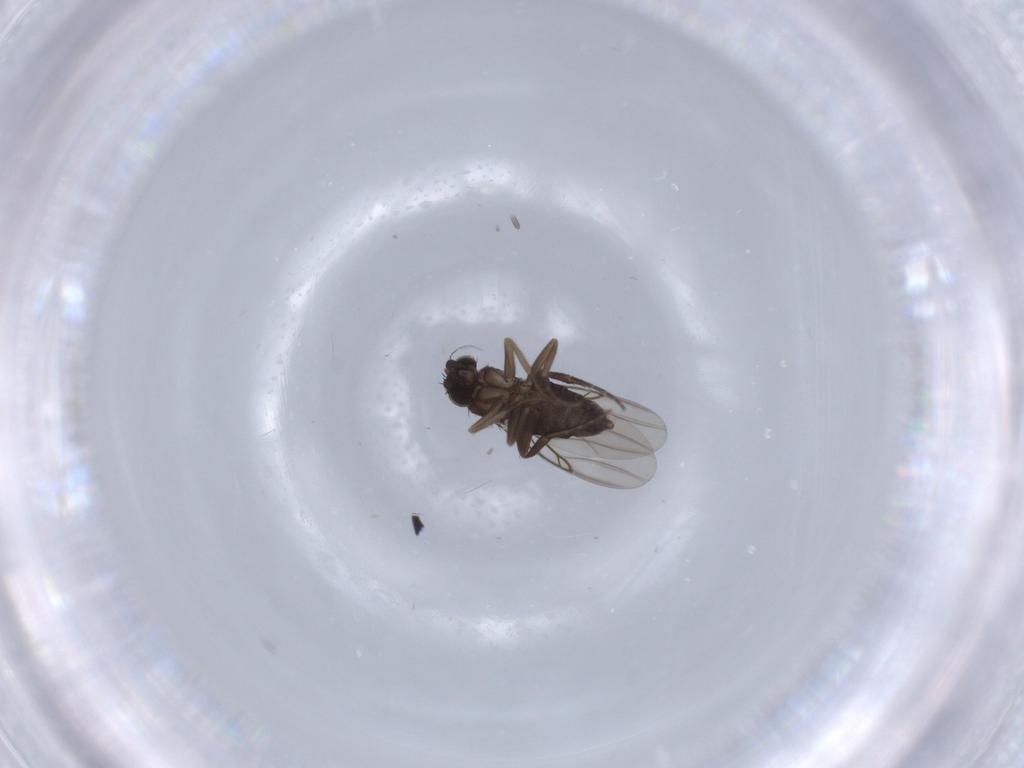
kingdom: Animalia
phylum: Arthropoda
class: Insecta
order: Diptera
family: Phoridae
